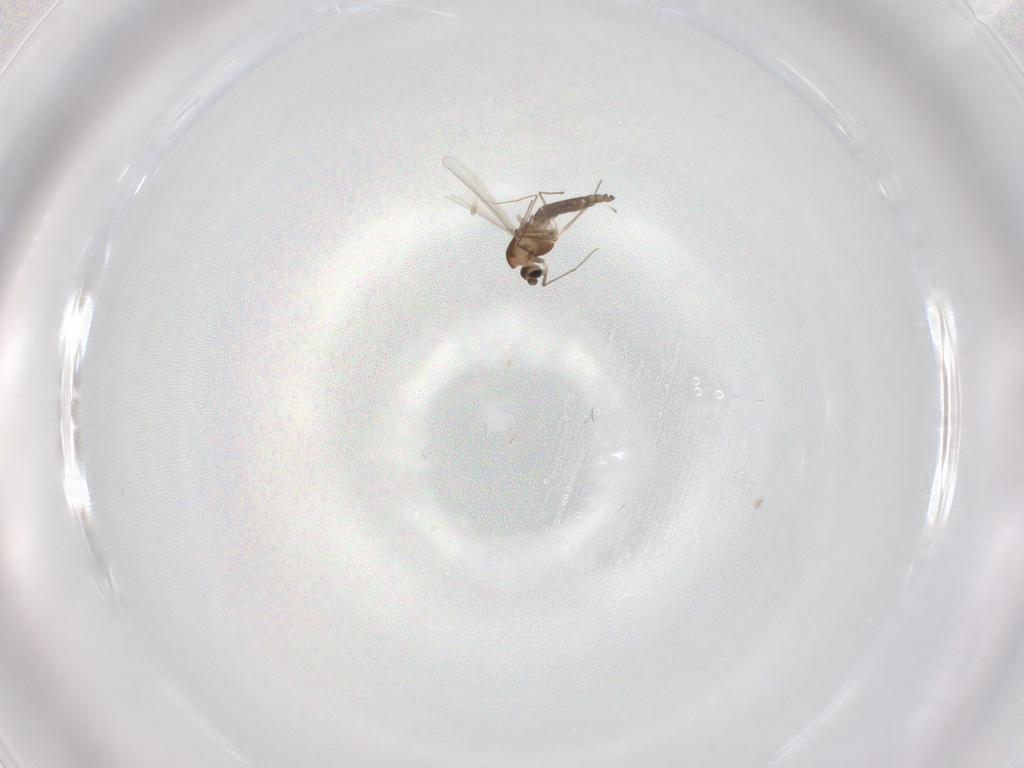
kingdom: Animalia
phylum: Arthropoda
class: Insecta
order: Diptera
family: Chironomidae
